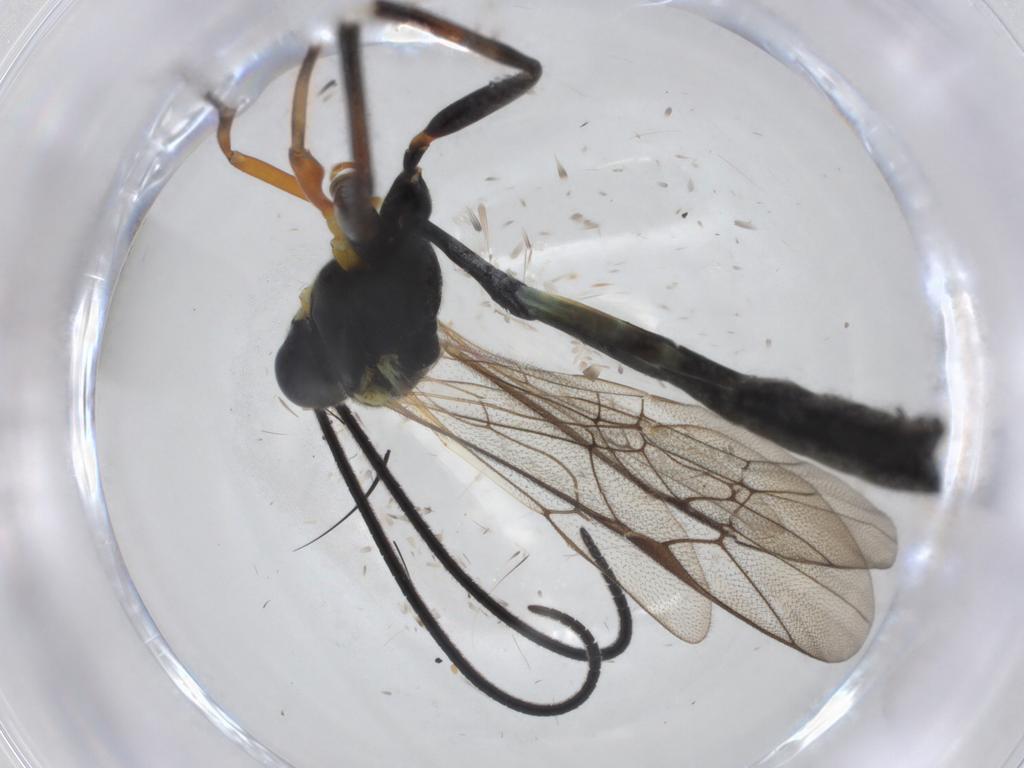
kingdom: Animalia
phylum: Arthropoda
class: Insecta
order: Hymenoptera
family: Ichneumonidae
